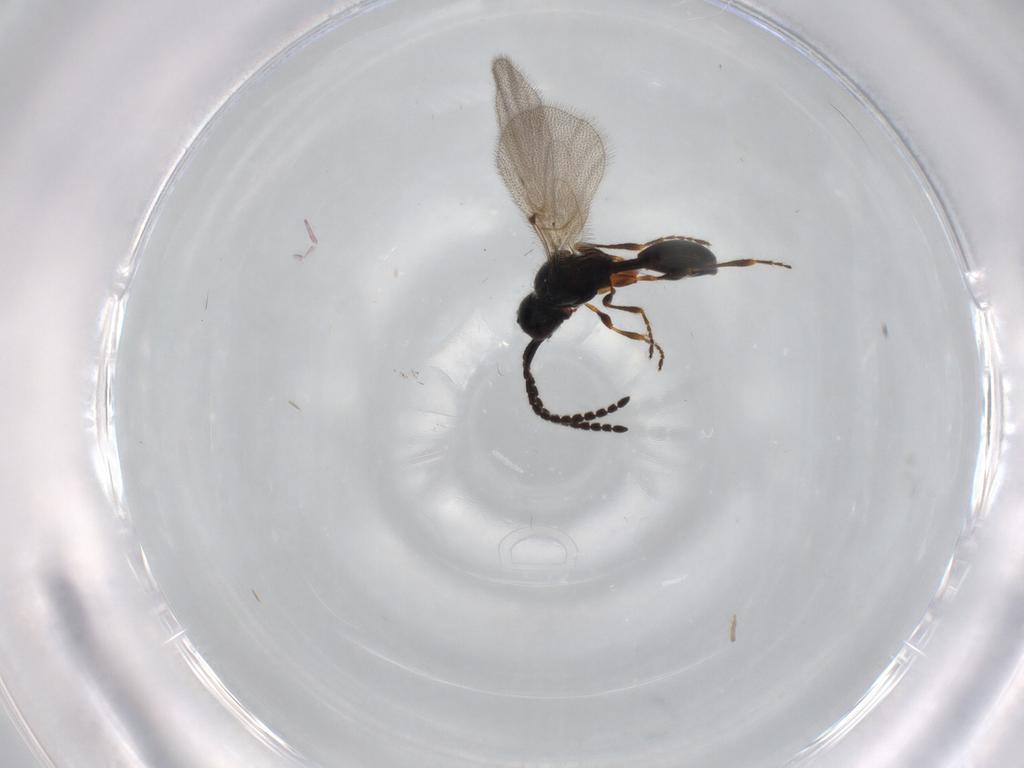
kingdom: Animalia
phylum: Arthropoda
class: Insecta
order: Hymenoptera
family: Diapriidae
